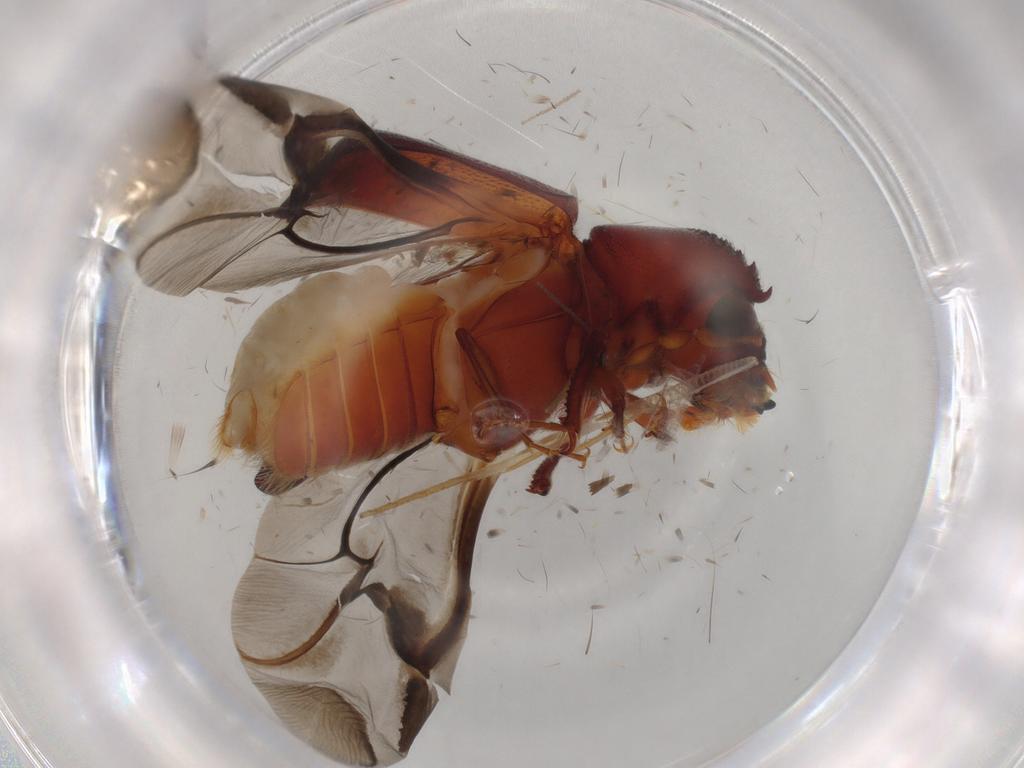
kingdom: Animalia
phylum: Arthropoda
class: Insecta
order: Coleoptera
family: Bostrichidae
